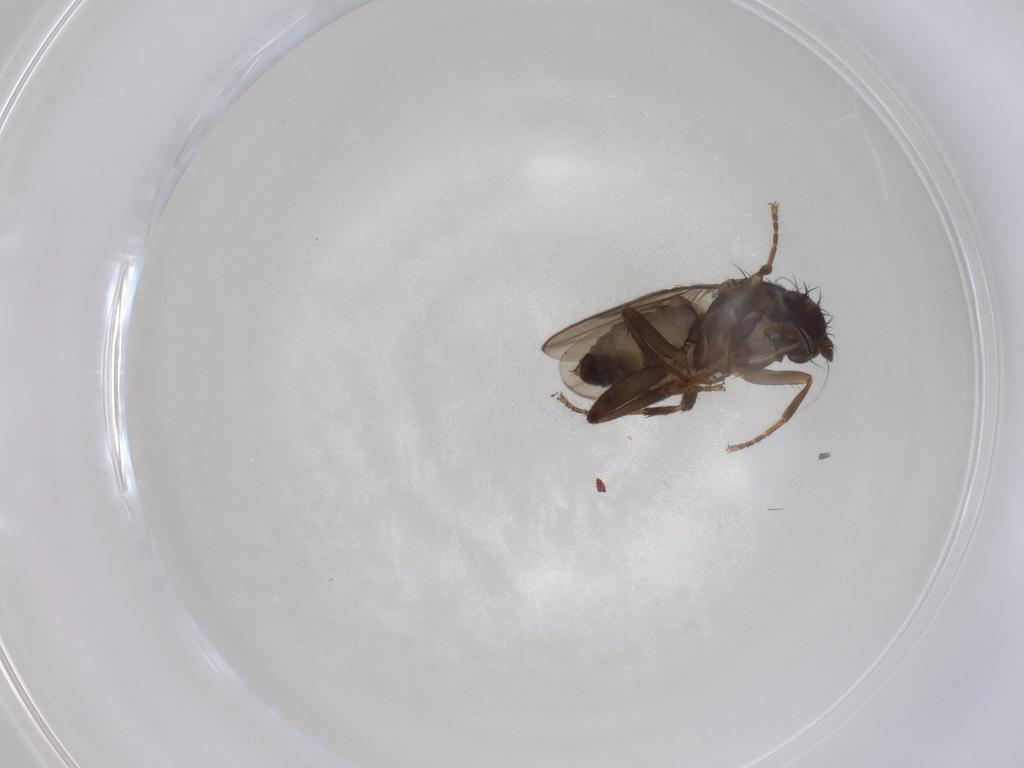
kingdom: Animalia
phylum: Arthropoda
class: Insecta
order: Diptera
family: Sphaeroceridae
